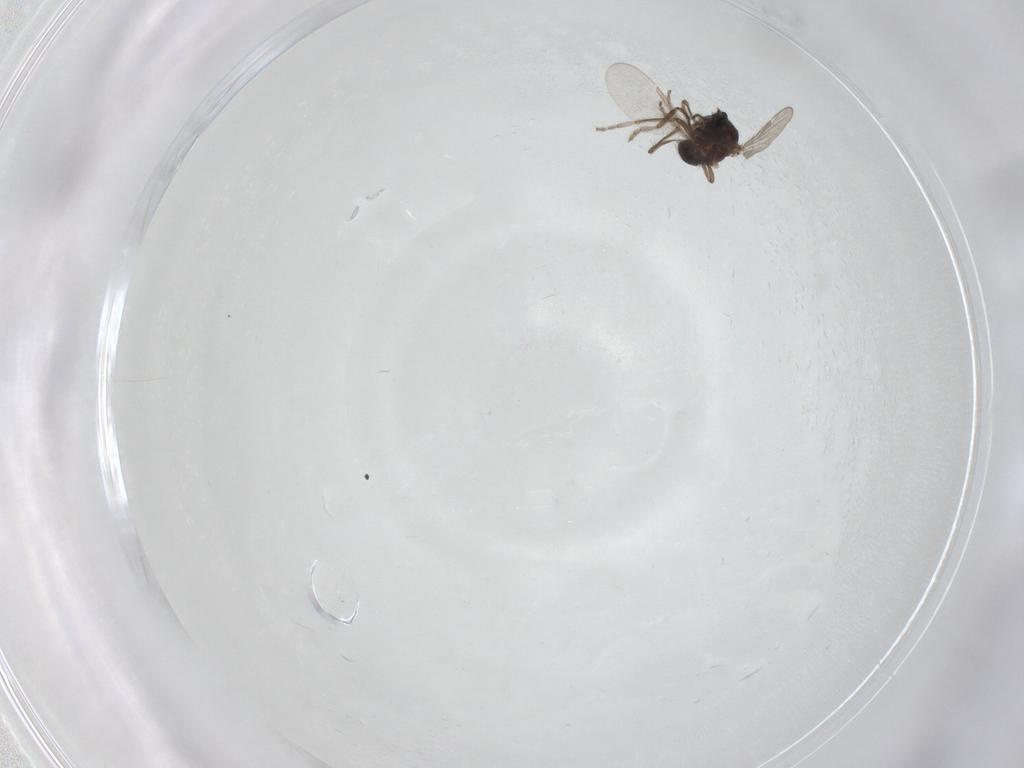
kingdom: Animalia
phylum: Arthropoda
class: Insecta
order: Diptera
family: Ceratopogonidae
